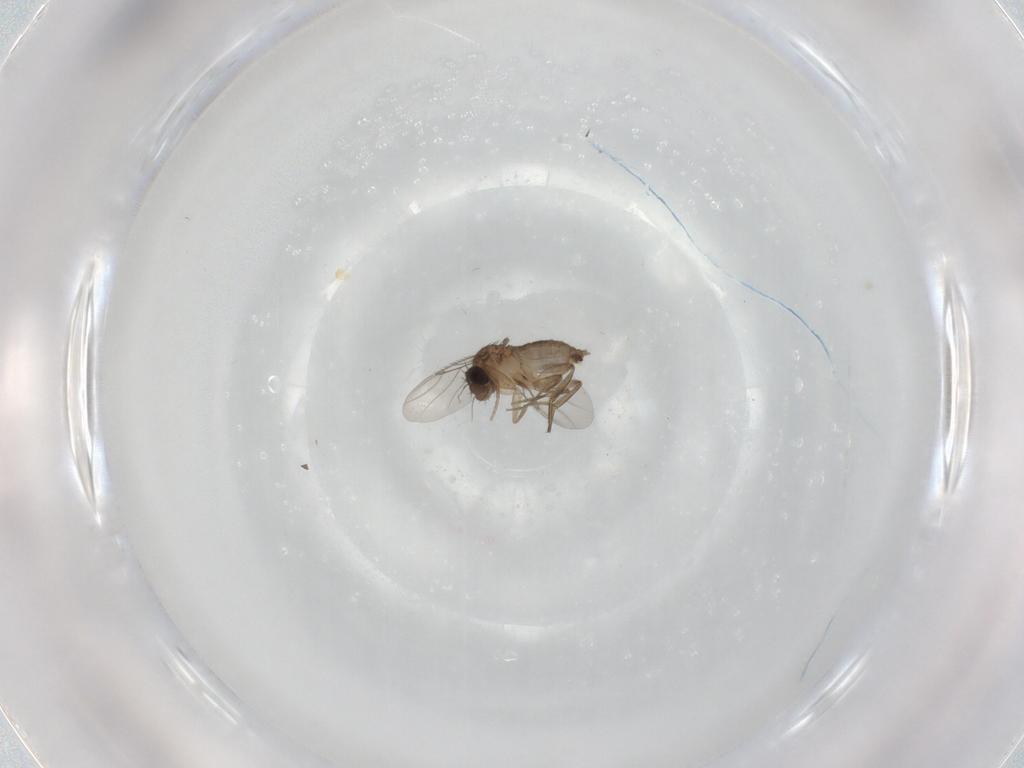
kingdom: Animalia
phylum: Arthropoda
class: Insecta
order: Diptera
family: Phoridae
